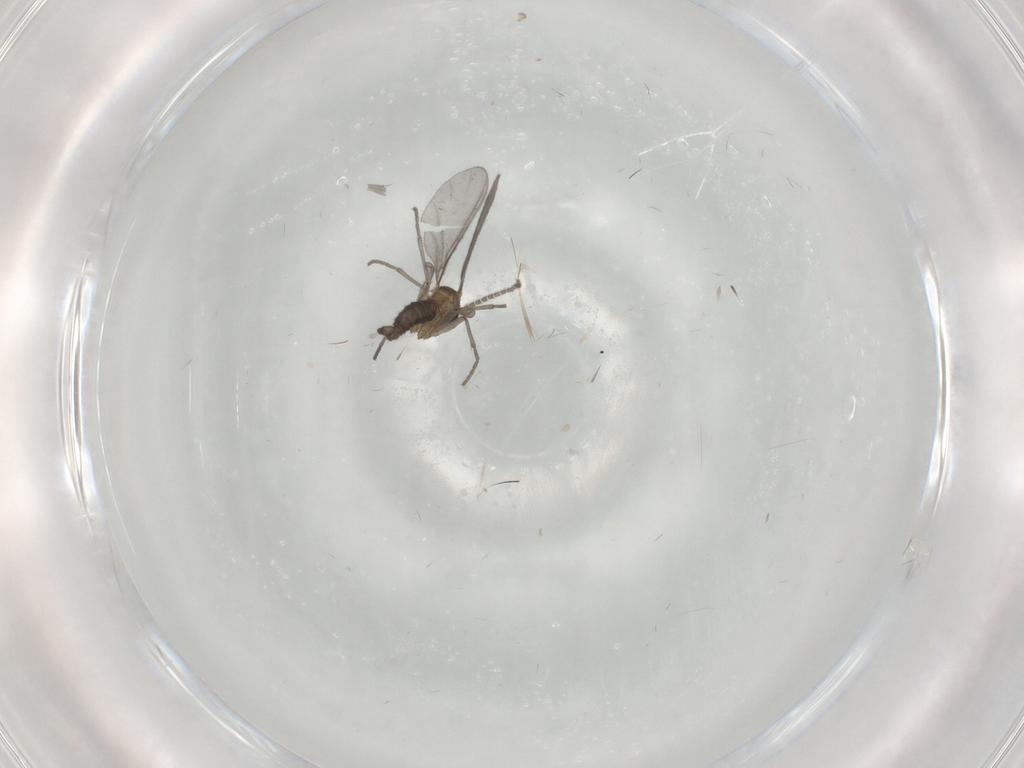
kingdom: Animalia
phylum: Arthropoda
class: Insecta
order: Diptera
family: Sciaridae
